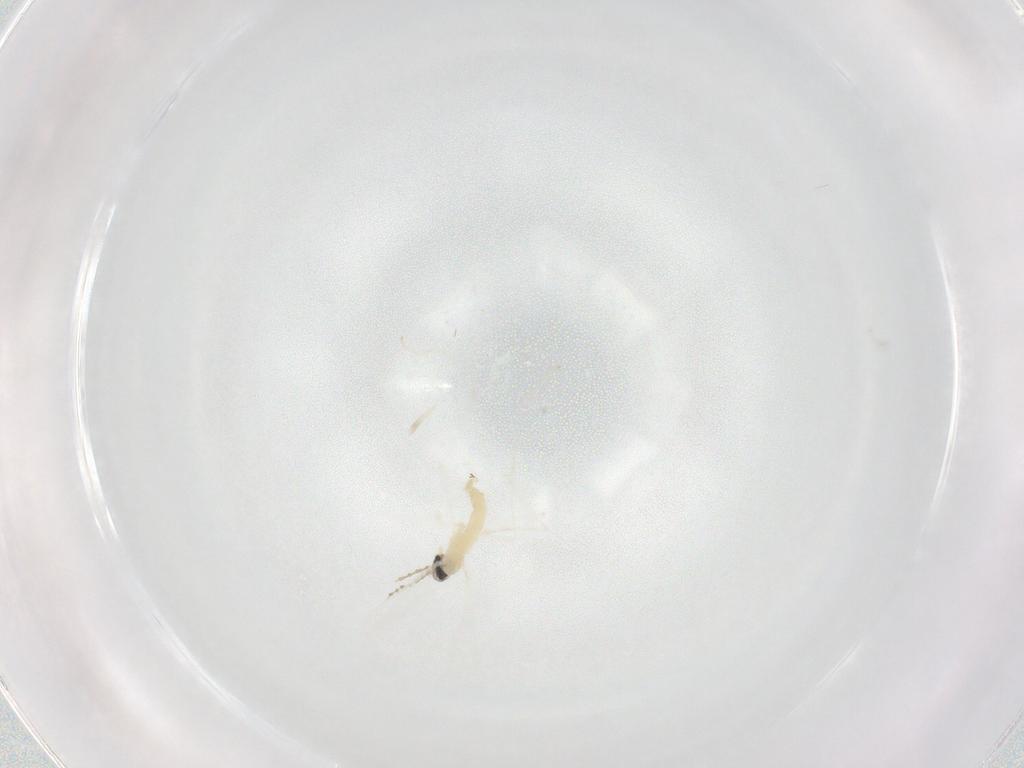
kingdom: Animalia
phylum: Arthropoda
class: Insecta
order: Diptera
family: Cecidomyiidae
